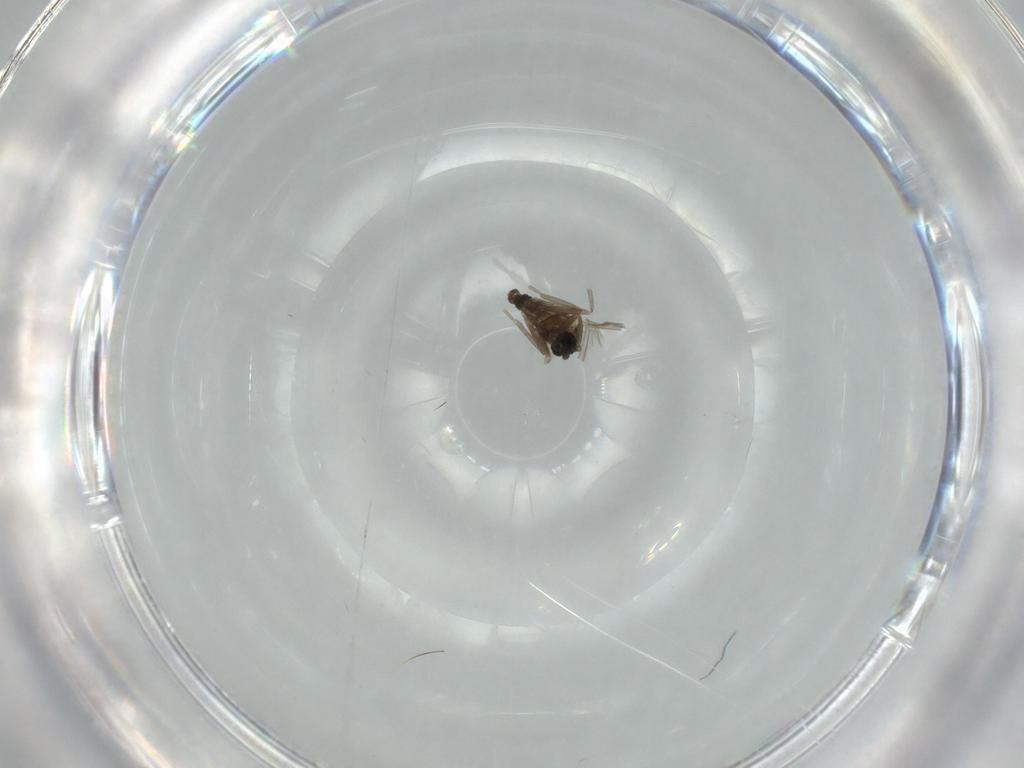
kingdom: Animalia
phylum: Arthropoda
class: Insecta
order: Diptera
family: Cecidomyiidae
